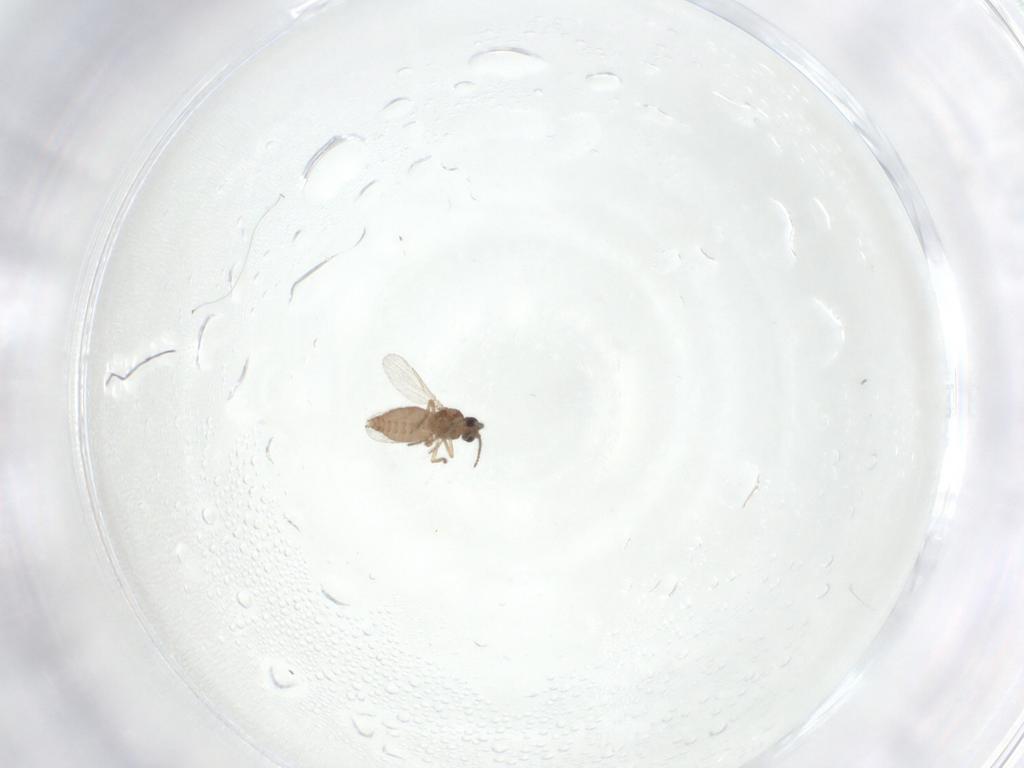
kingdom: Animalia
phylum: Arthropoda
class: Insecta
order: Diptera
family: Ceratopogonidae
